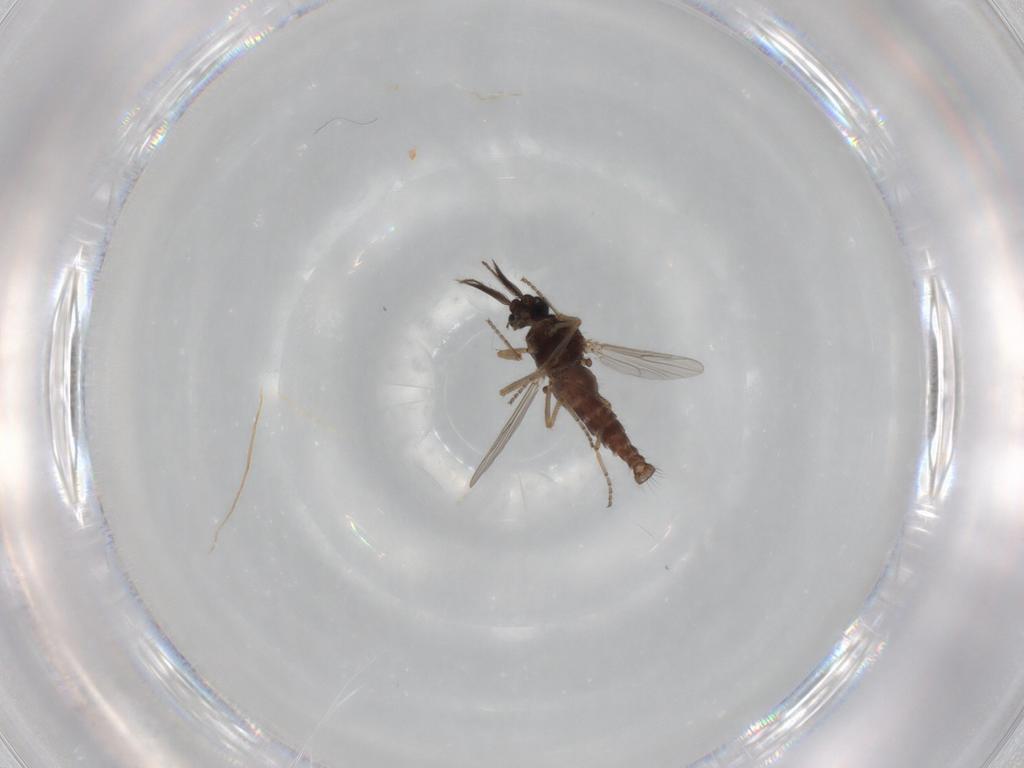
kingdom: Animalia
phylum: Arthropoda
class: Insecta
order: Diptera
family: Ceratopogonidae
